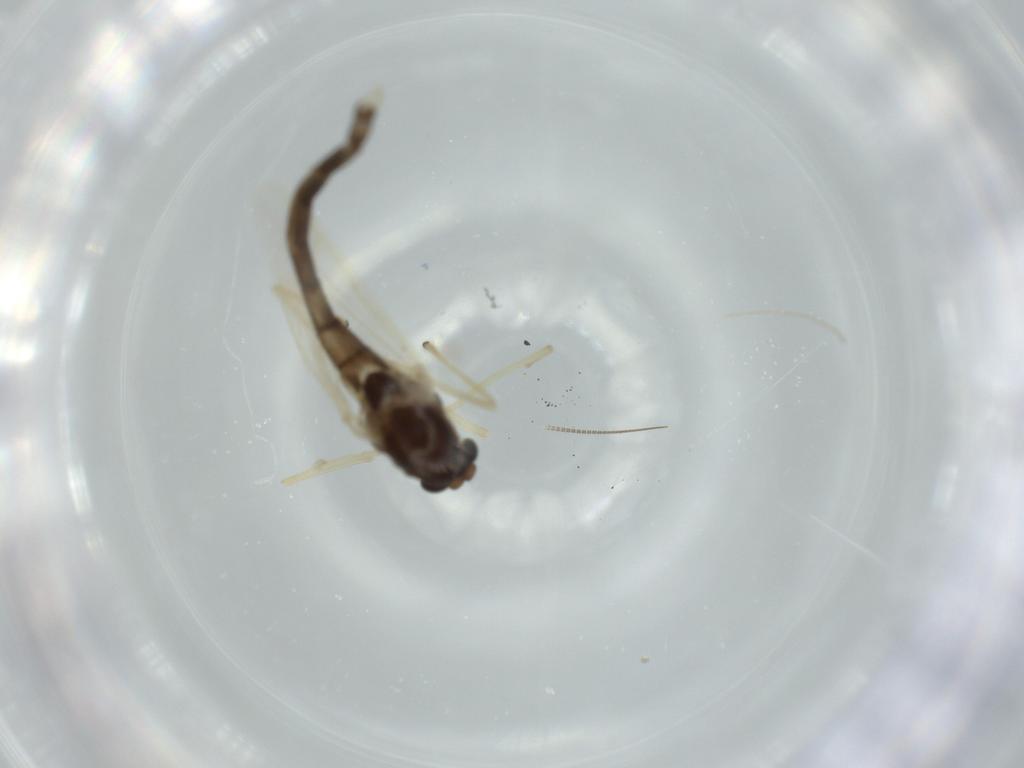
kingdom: Animalia
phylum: Arthropoda
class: Insecta
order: Diptera
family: Chironomidae
